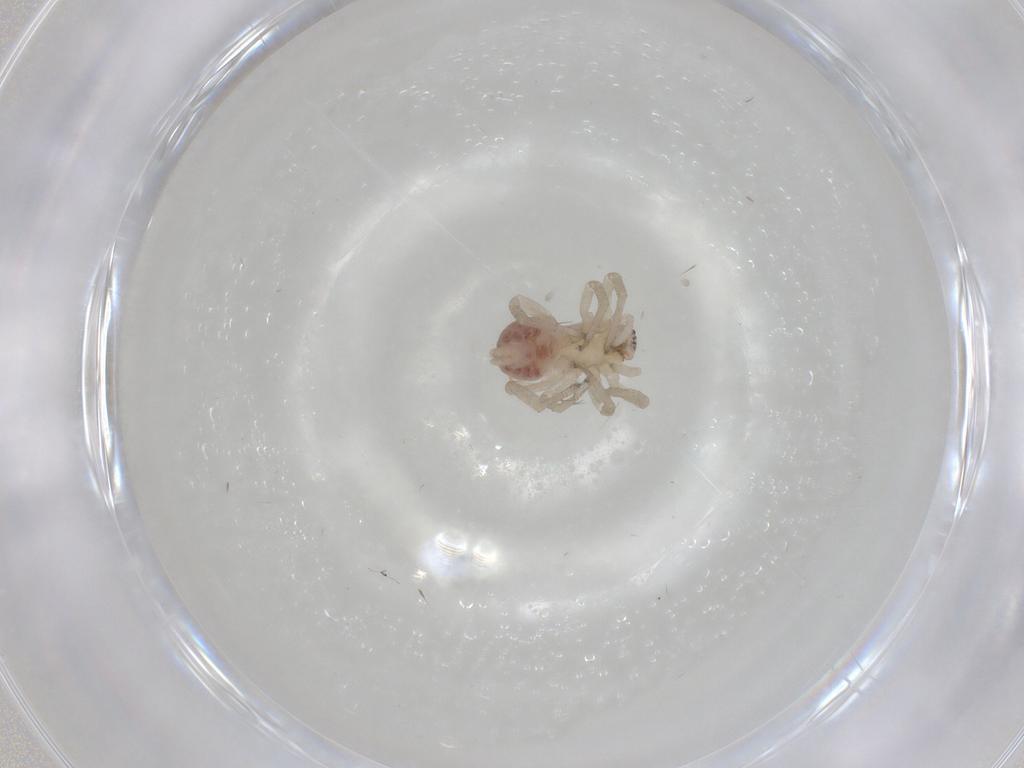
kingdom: Animalia
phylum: Arthropoda
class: Arachnida
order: Araneae
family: Anyphaenidae
